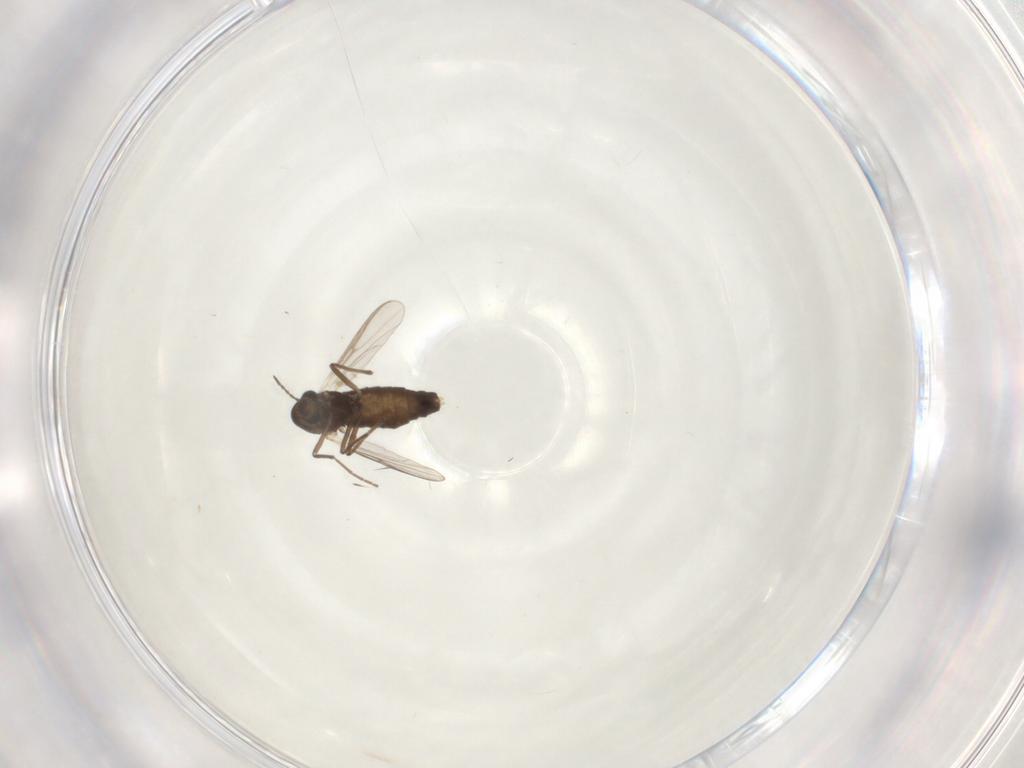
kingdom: Animalia
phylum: Arthropoda
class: Insecta
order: Diptera
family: Chironomidae
